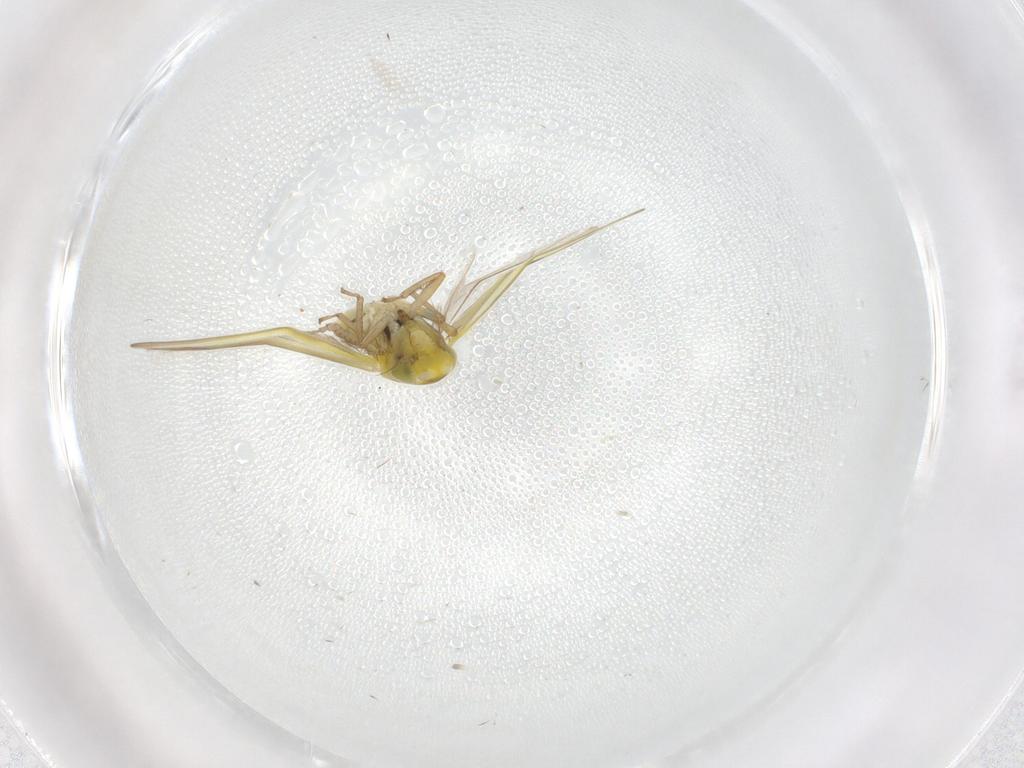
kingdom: Animalia
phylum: Arthropoda
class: Insecta
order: Hemiptera
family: Cicadellidae
